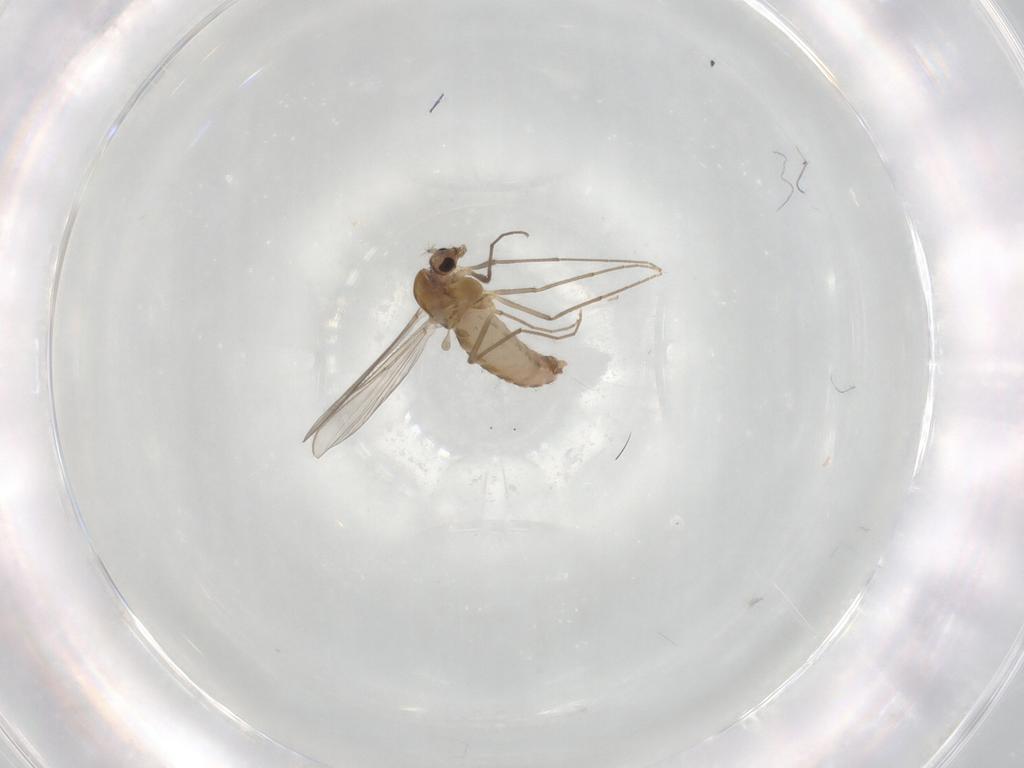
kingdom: Animalia
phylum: Arthropoda
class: Insecta
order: Diptera
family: Chironomidae
